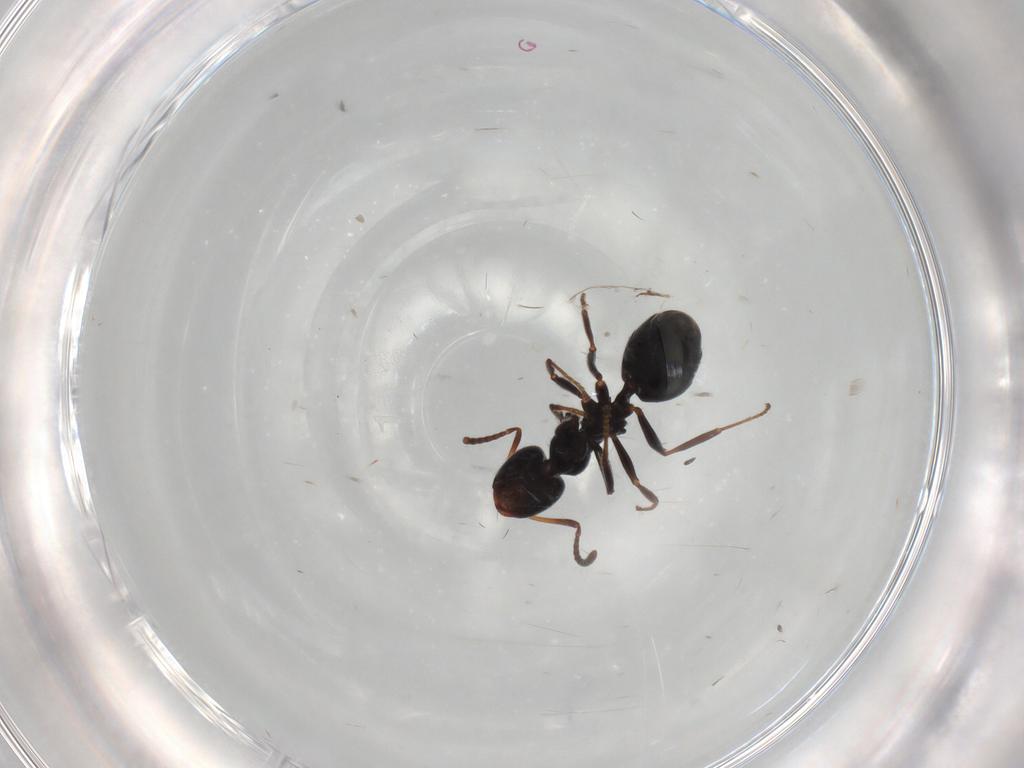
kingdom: Animalia
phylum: Arthropoda
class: Insecta
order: Hymenoptera
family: Formicidae
